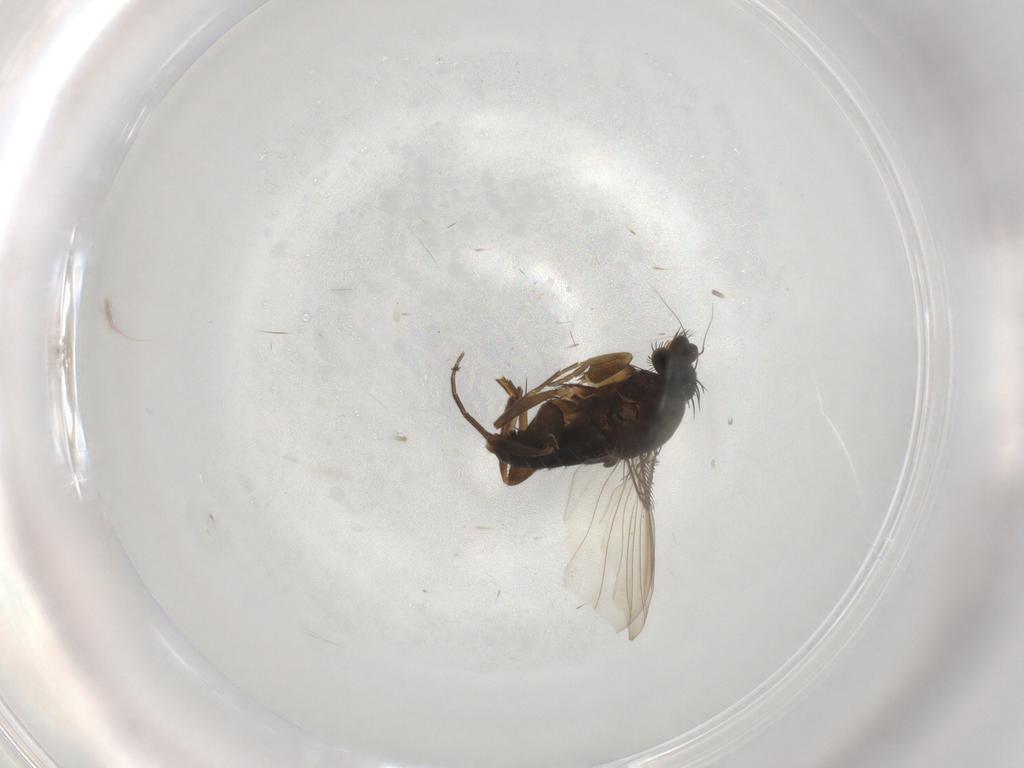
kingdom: Animalia
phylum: Arthropoda
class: Insecta
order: Diptera
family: Phoridae
